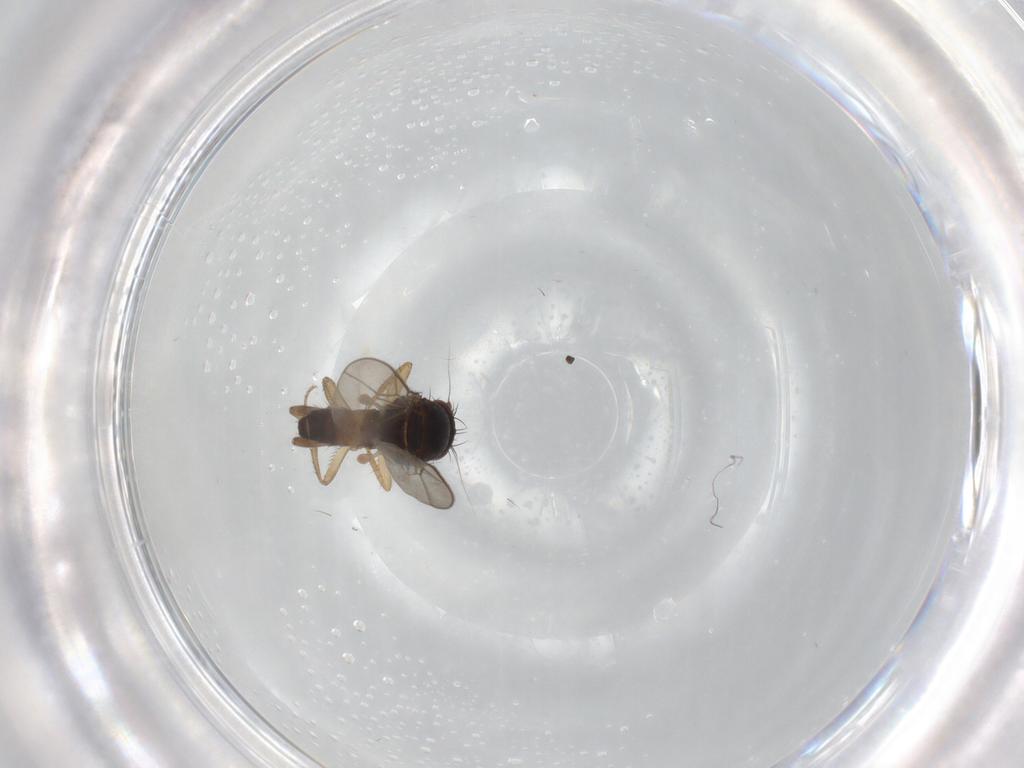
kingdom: Animalia
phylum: Arthropoda
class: Insecta
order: Diptera
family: Sphaeroceridae
